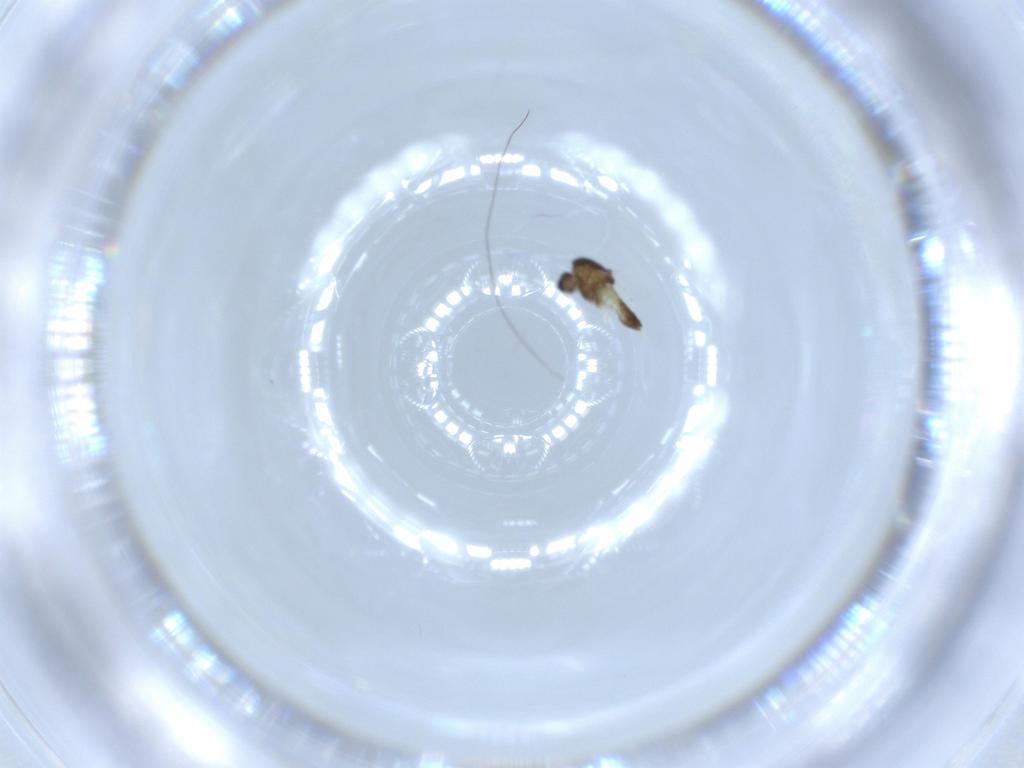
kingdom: Animalia
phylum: Arthropoda
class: Insecta
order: Diptera
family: Chironomidae
